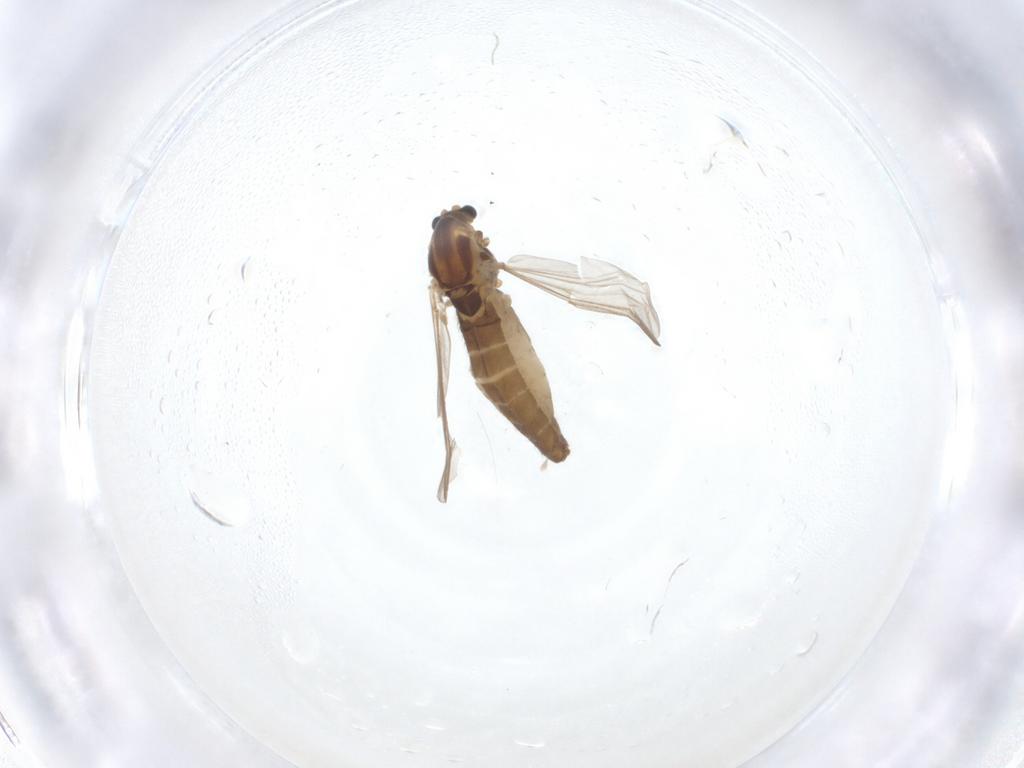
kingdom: Animalia
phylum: Arthropoda
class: Insecta
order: Diptera
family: Chironomidae
